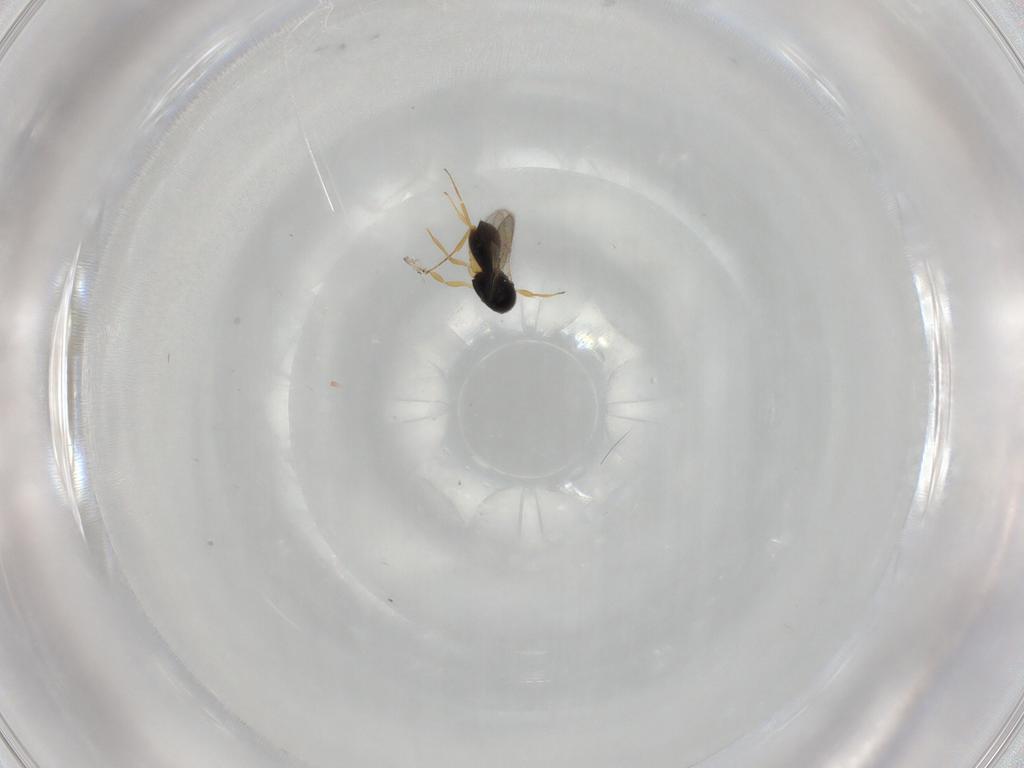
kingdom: Animalia
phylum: Arthropoda
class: Insecta
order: Hymenoptera
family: Scelionidae
